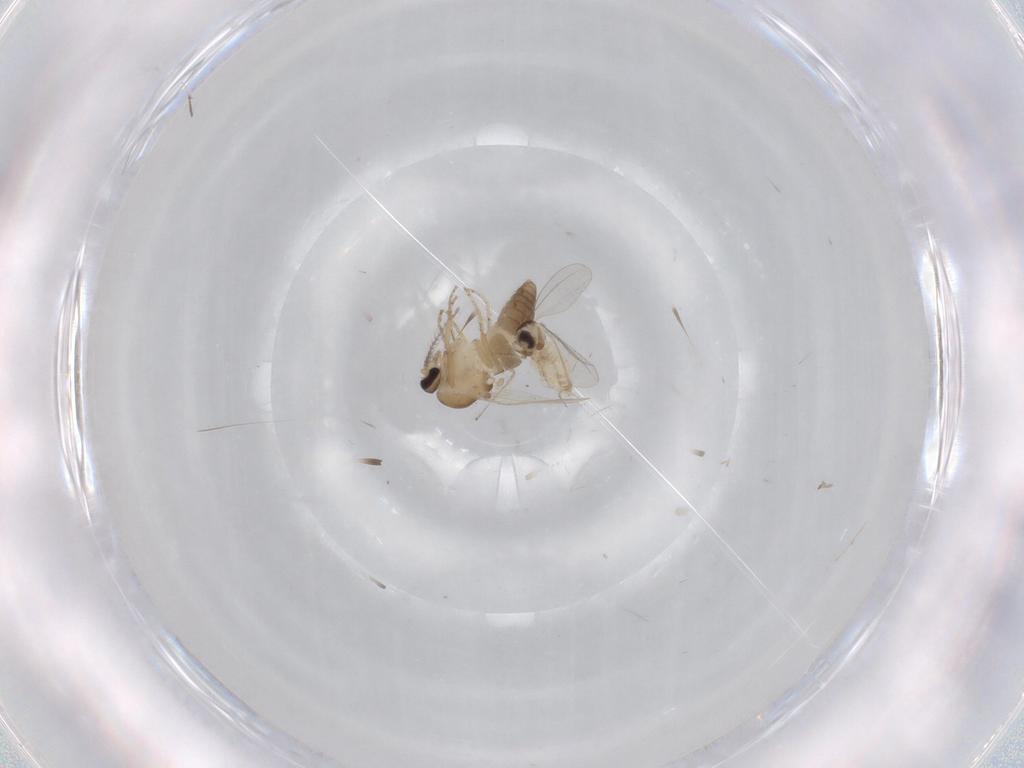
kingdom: Animalia
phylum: Arthropoda
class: Insecta
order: Diptera
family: Ceratopogonidae
